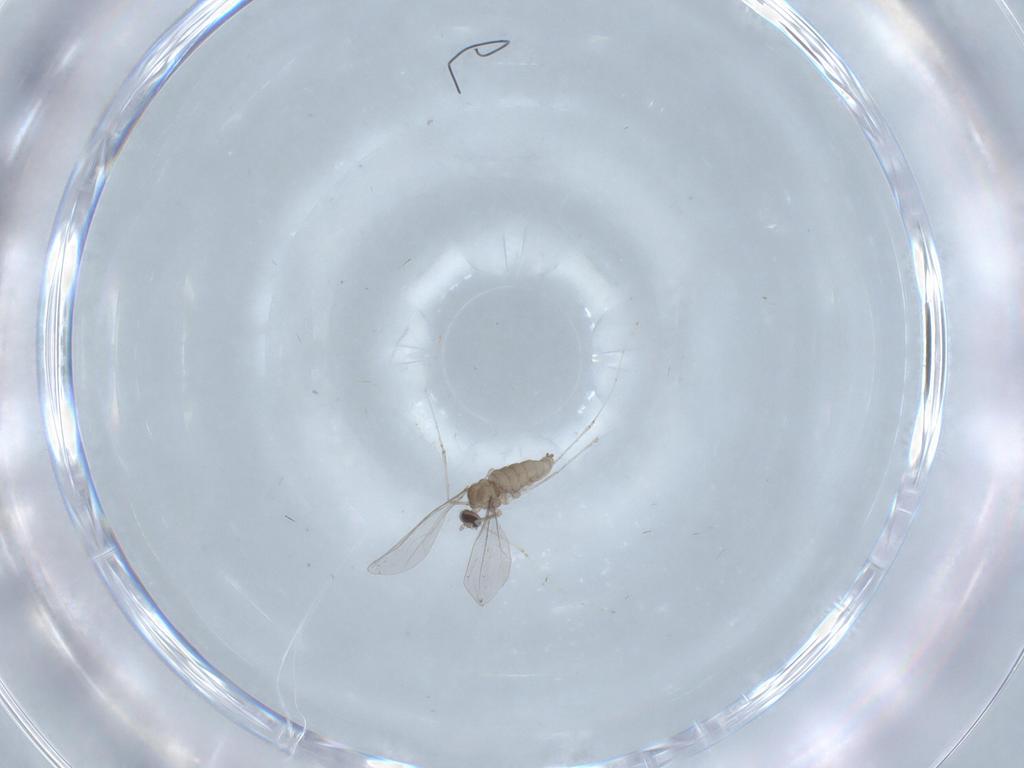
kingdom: Animalia
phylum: Arthropoda
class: Insecta
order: Diptera
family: Cecidomyiidae
